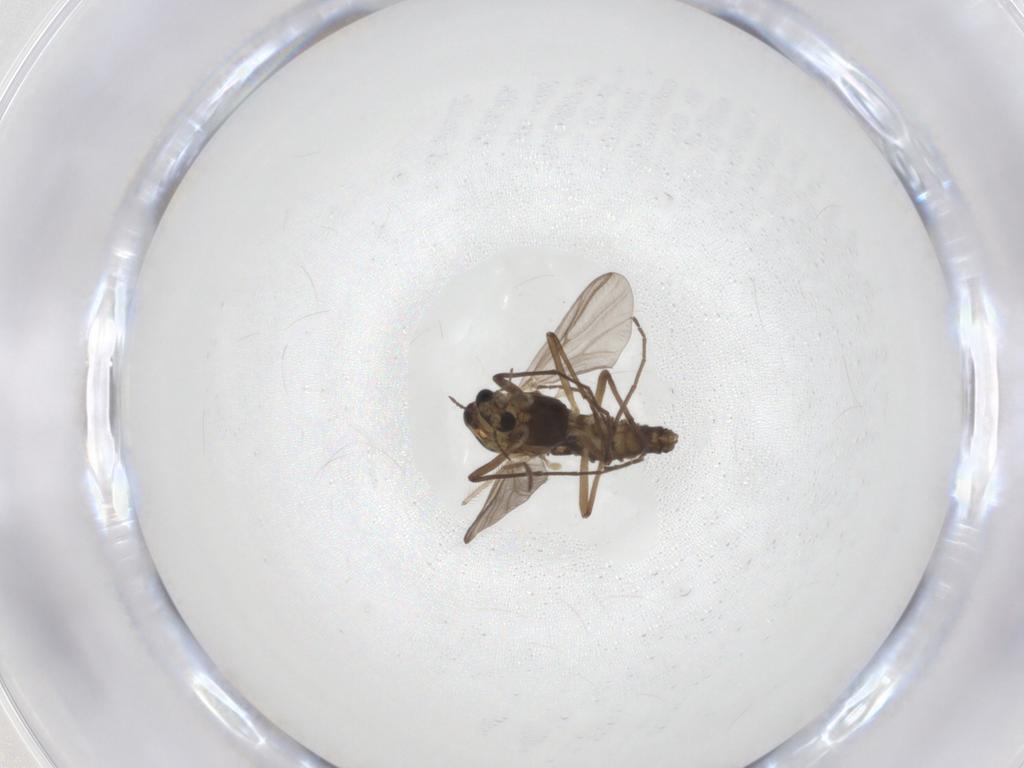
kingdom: Animalia
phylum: Arthropoda
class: Insecta
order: Diptera
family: Chironomidae
